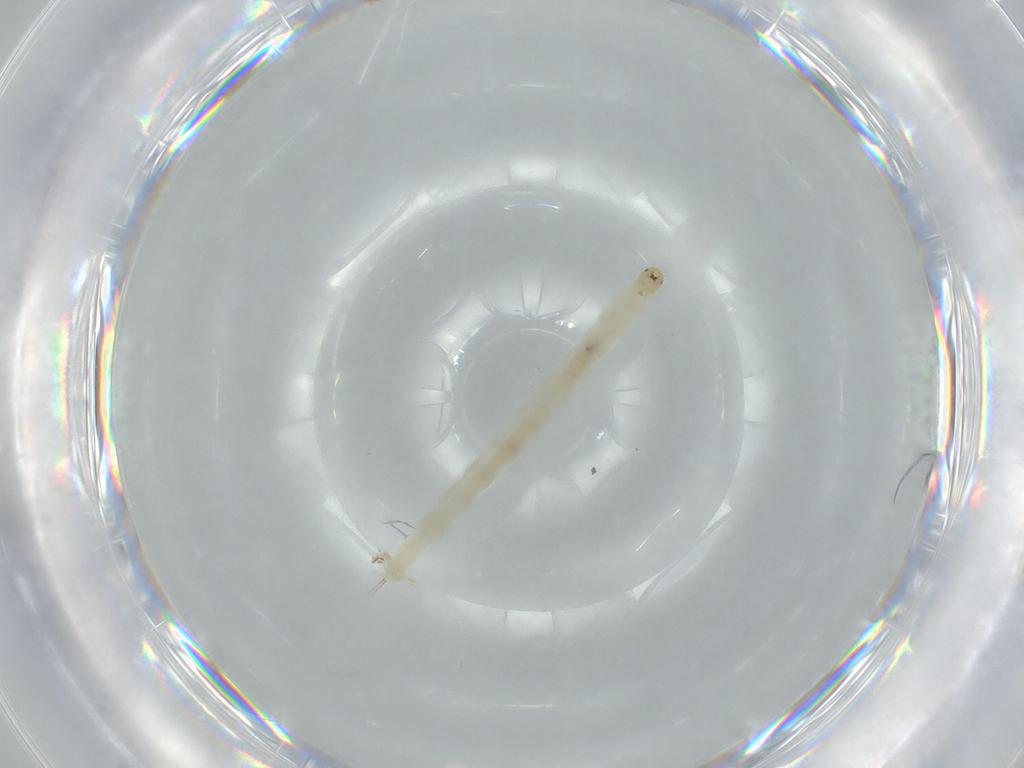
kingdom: Animalia
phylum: Arthropoda
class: Insecta
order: Diptera
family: Chironomidae
